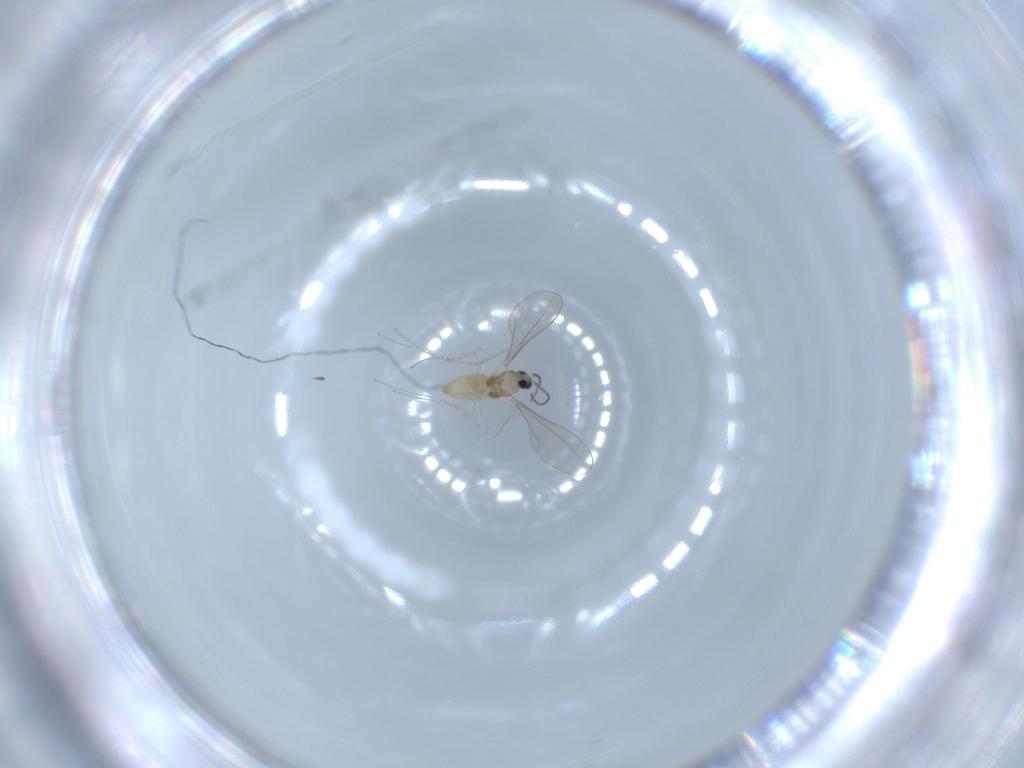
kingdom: Animalia
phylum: Arthropoda
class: Insecta
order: Diptera
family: Cecidomyiidae
